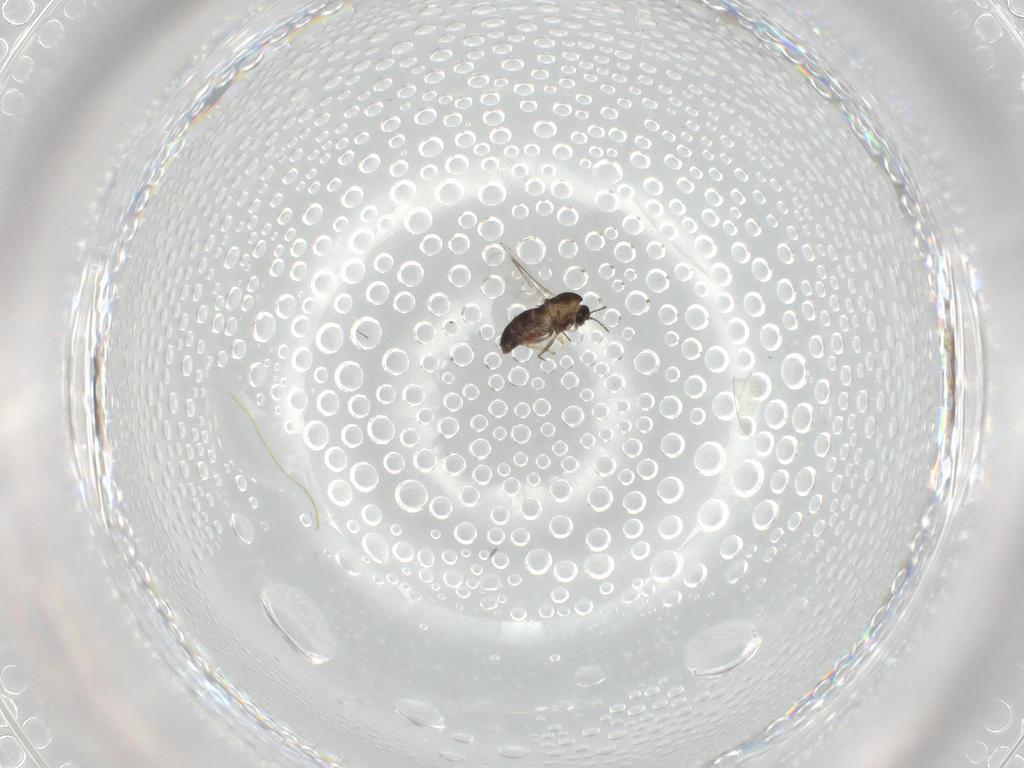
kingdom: Animalia
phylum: Arthropoda
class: Insecta
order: Diptera
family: Chironomidae
